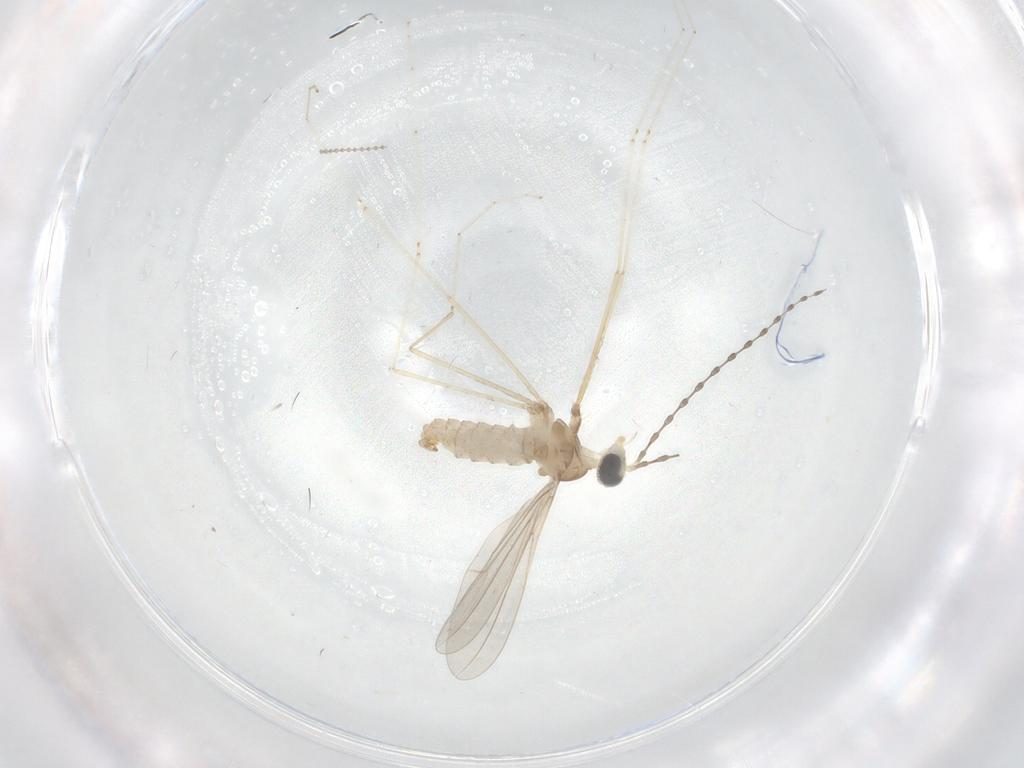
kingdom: Animalia
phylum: Arthropoda
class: Insecta
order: Diptera
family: Cecidomyiidae
